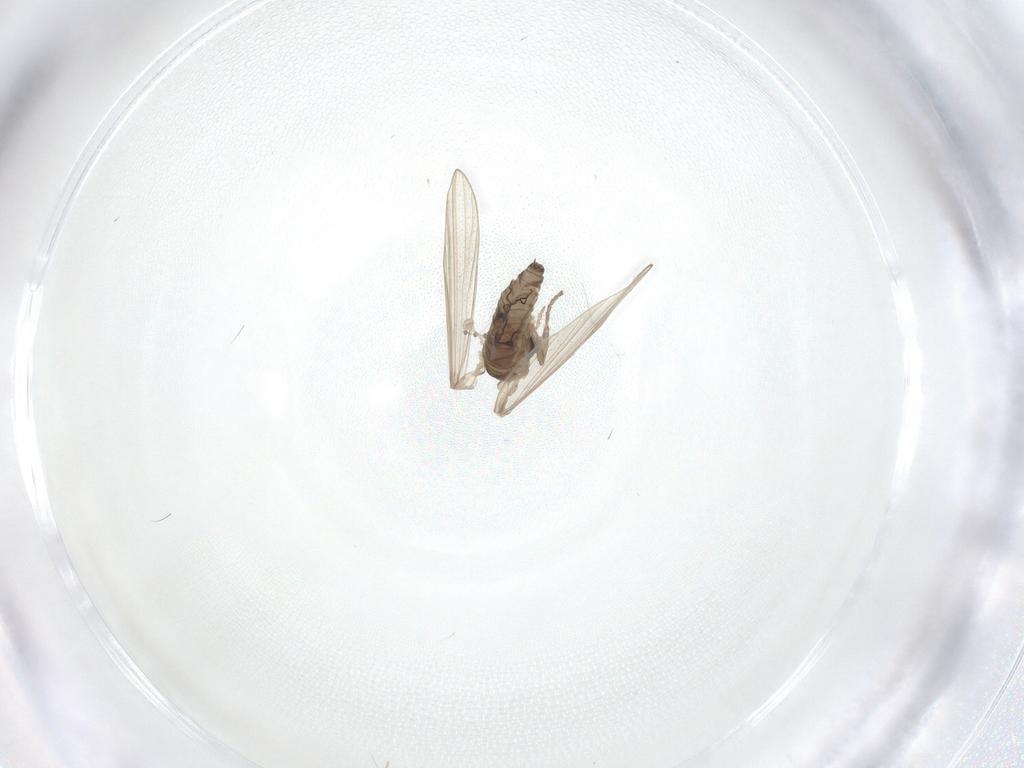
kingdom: Animalia
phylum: Arthropoda
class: Insecta
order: Diptera
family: Psychodidae
